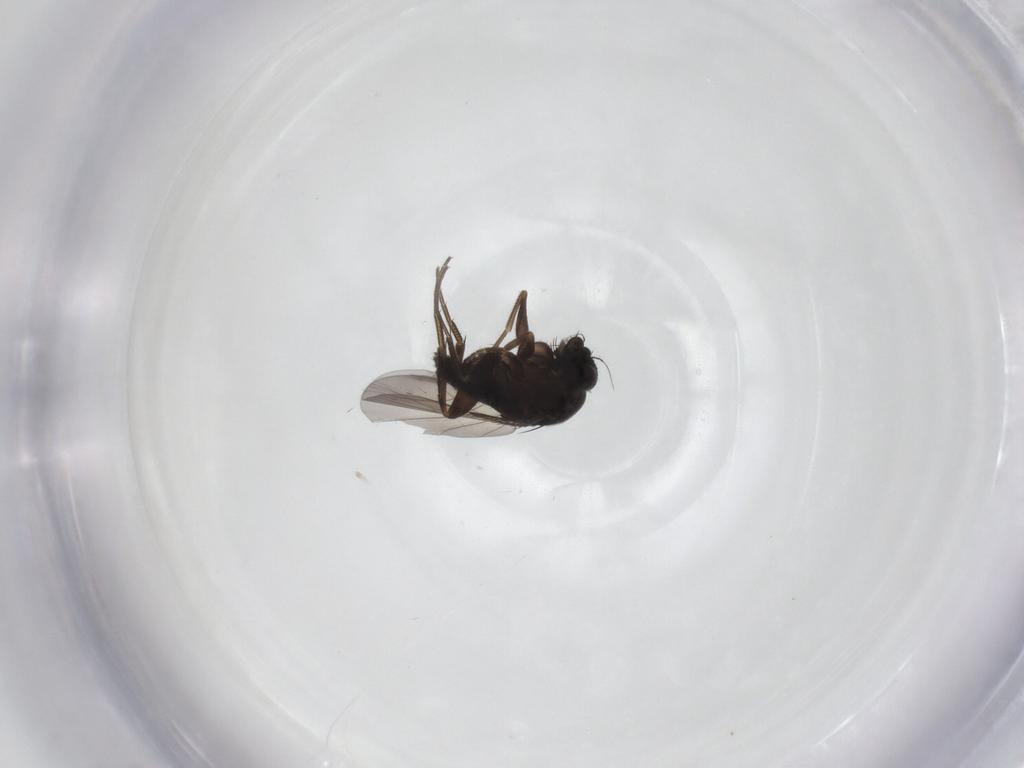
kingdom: Animalia
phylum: Arthropoda
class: Insecta
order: Diptera
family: Phoridae
